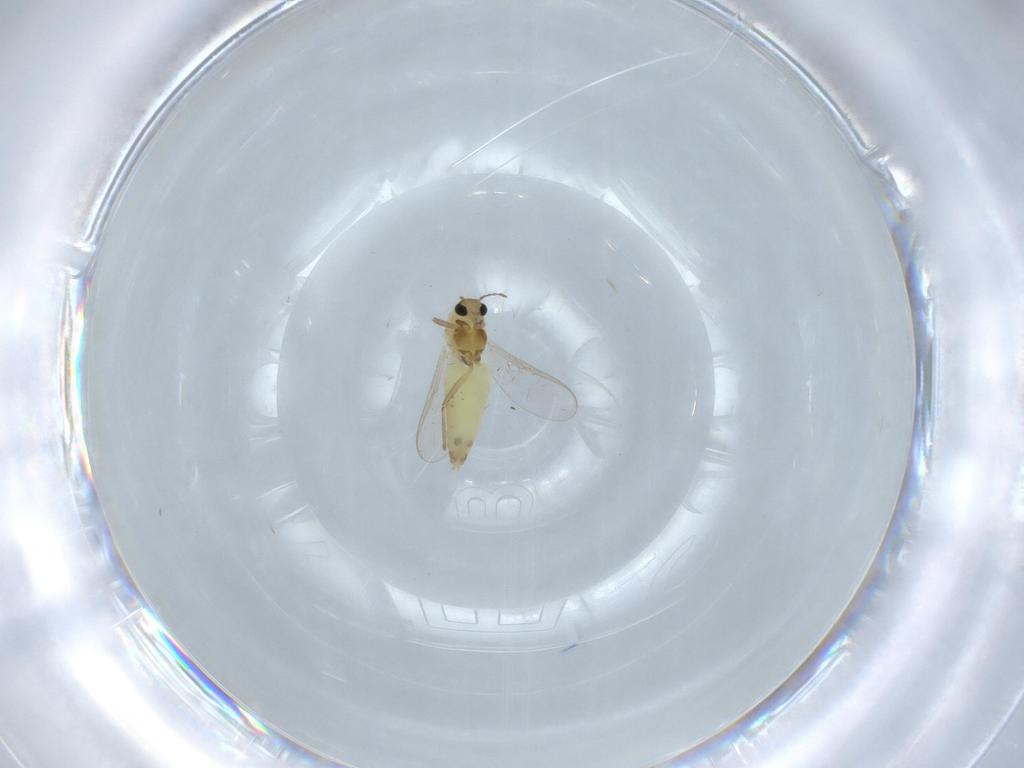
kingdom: Animalia
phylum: Arthropoda
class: Insecta
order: Diptera
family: Chironomidae
